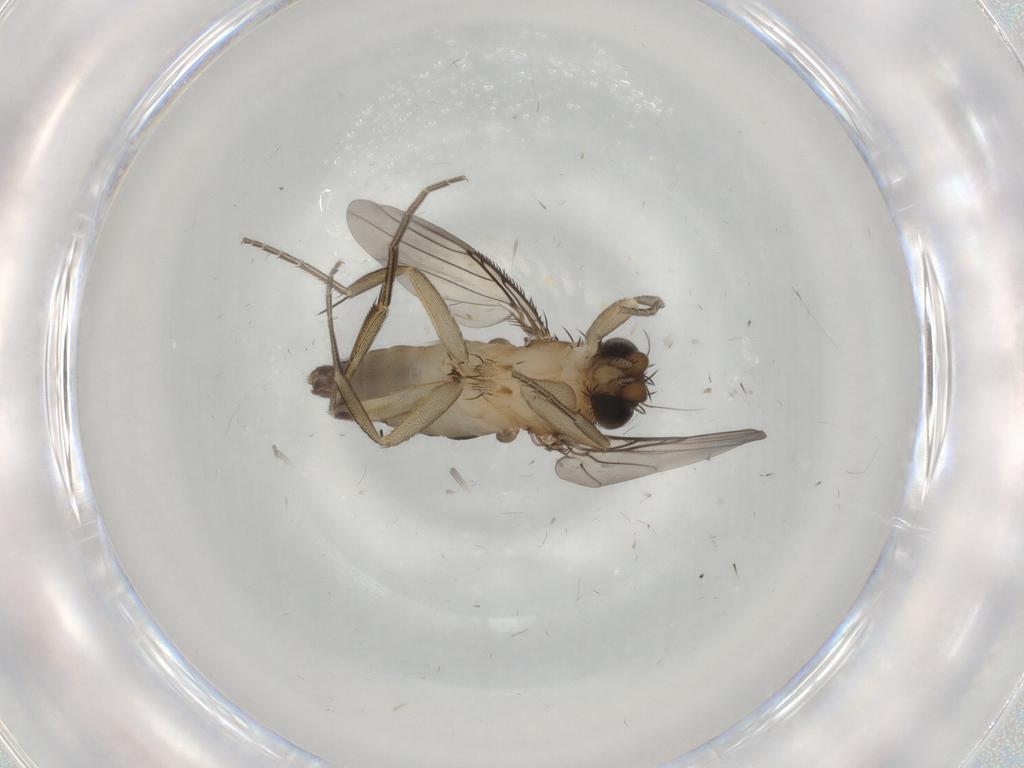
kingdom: Animalia
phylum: Arthropoda
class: Insecta
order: Diptera
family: Phoridae
